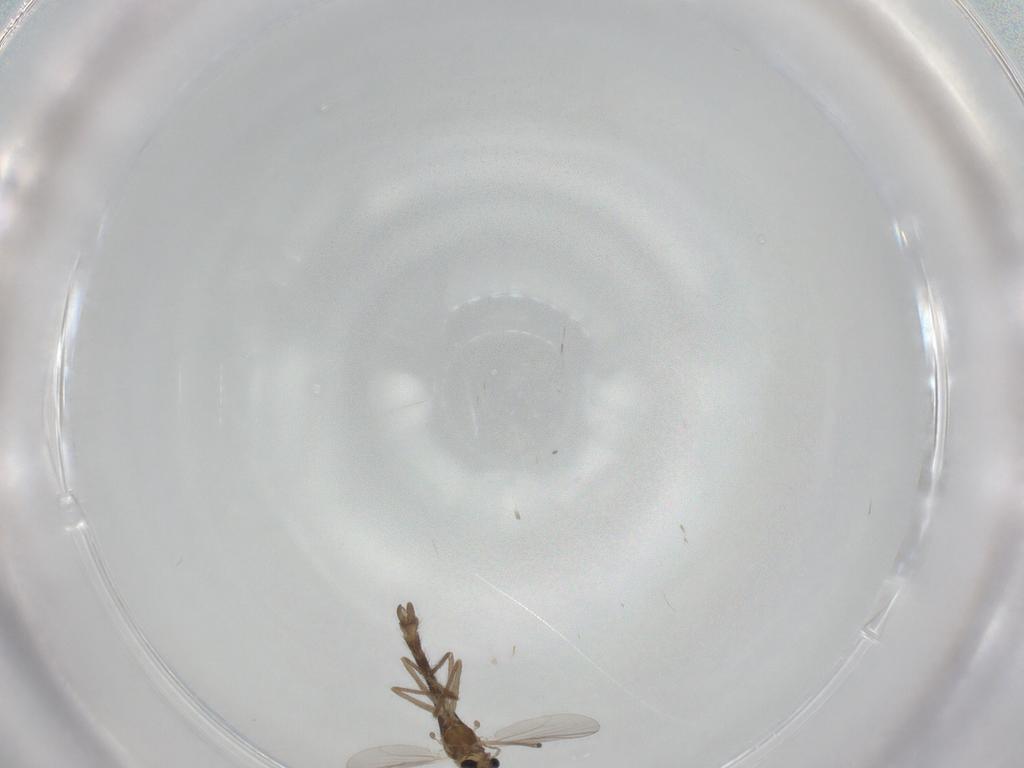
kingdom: Animalia
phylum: Arthropoda
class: Insecta
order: Diptera
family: Chironomidae
